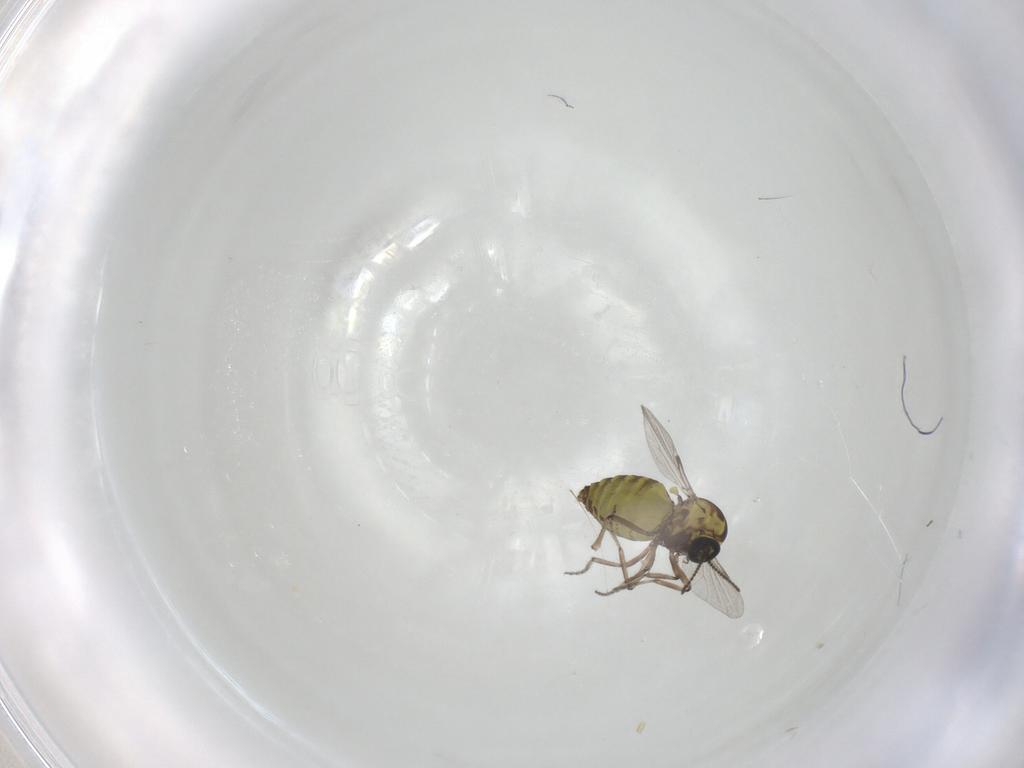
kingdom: Animalia
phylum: Arthropoda
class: Insecta
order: Diptera
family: Ceratopogonidae
